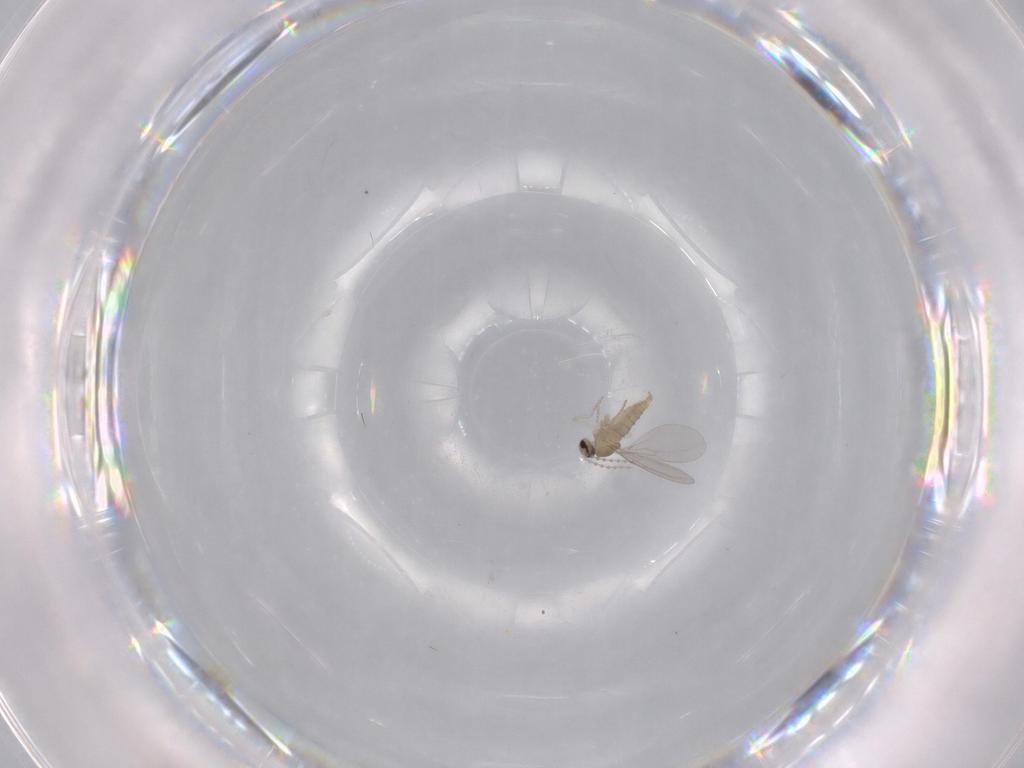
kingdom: Animalia
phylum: Arthropoda
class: Insecta
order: Diptera
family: Cecidomyiidae
